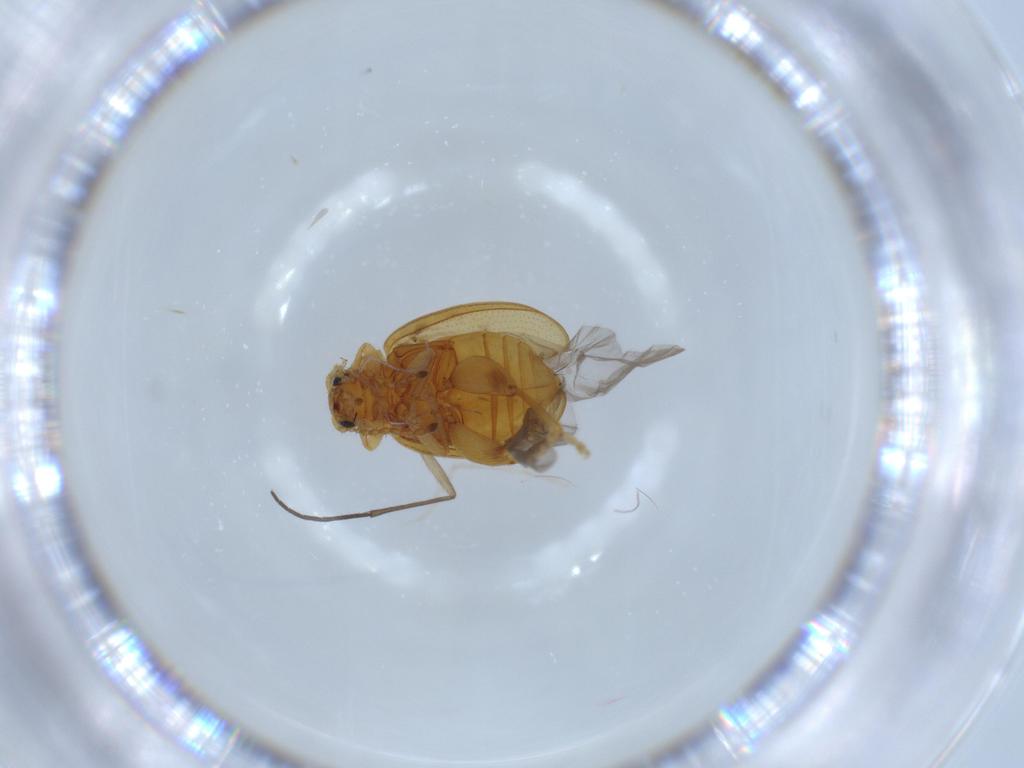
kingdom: Animalia
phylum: Arthropoda
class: Insecta
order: Coleoptera
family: Chrysomelidae
